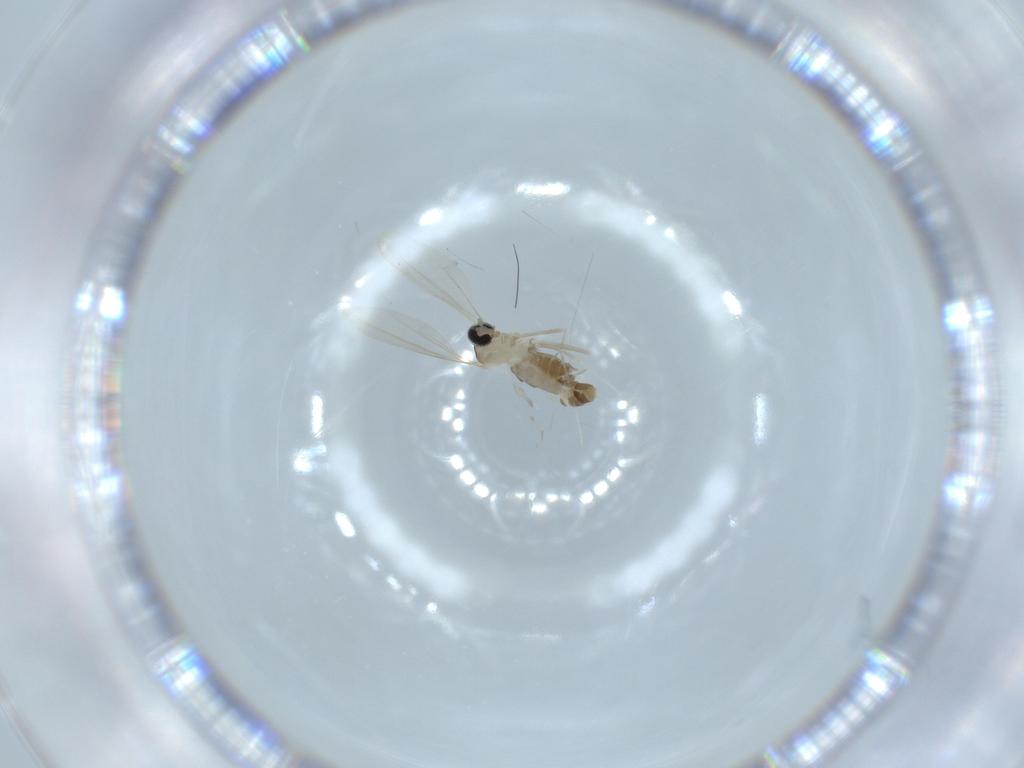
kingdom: Animalia
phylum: Arthropoda
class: Insecta
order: Diptera
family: Cecidomyiidae
